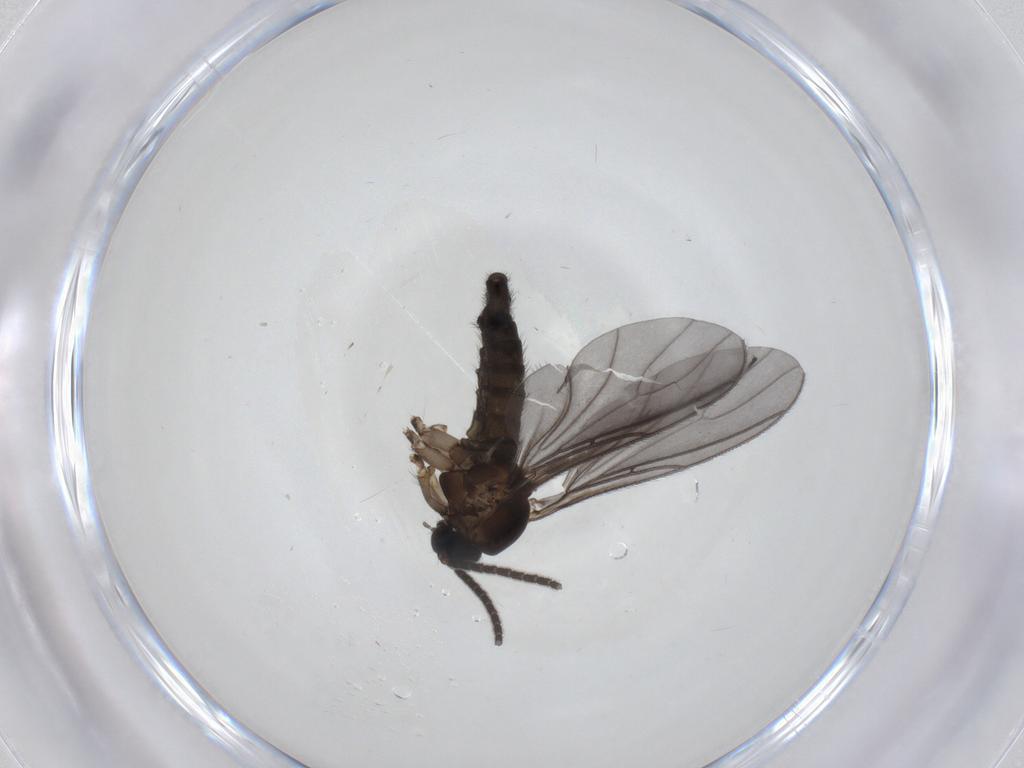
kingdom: Animalia
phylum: Arthropoda
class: Insecta
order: Diptera
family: Sciaridae
